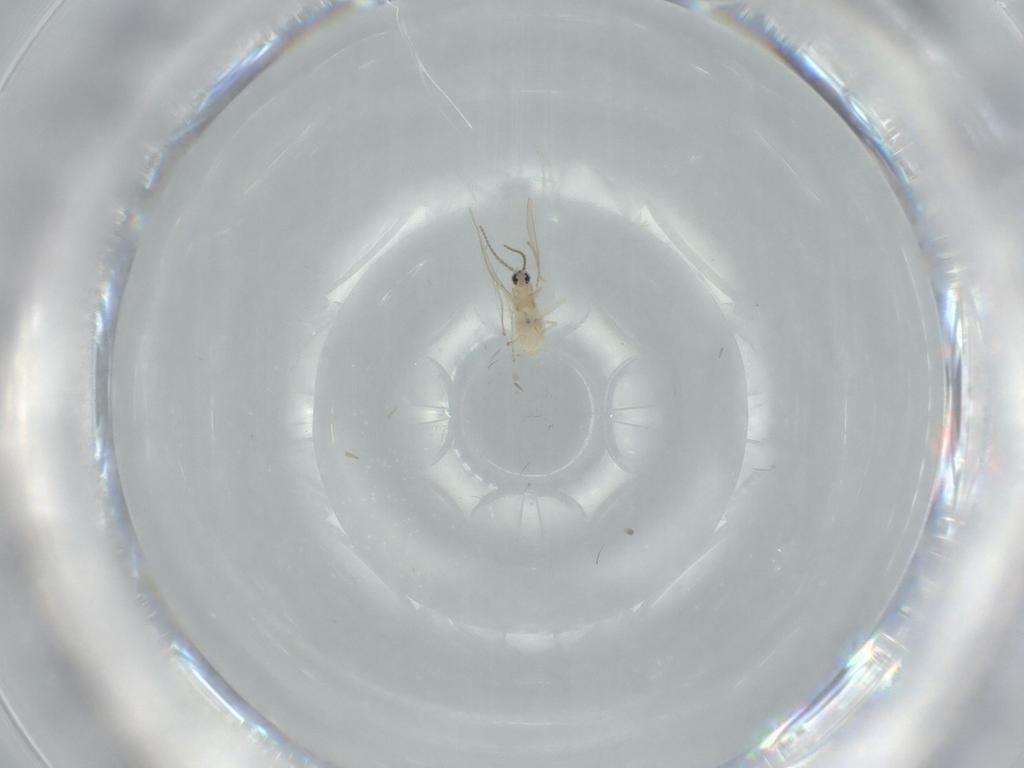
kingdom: Animalia
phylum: Arthropoda
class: Insecta
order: Diptera
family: Cecidomyiidae
